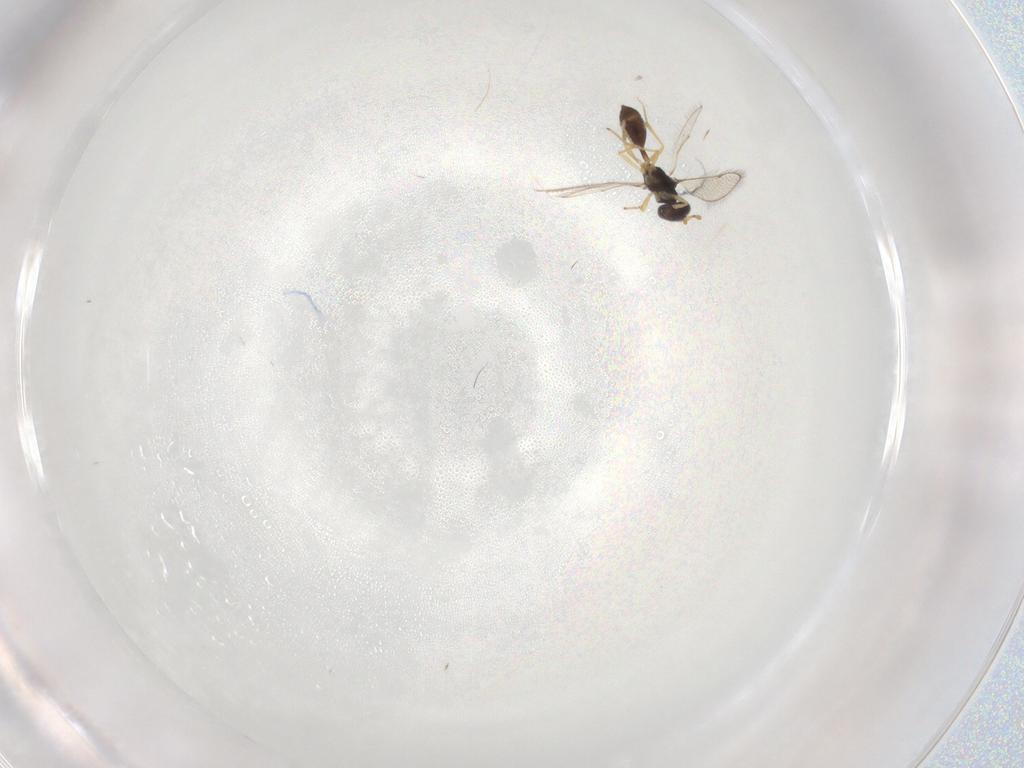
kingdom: Animalia
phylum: Arthropoda
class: Insecta
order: Hymenoptera
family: Diparidae
